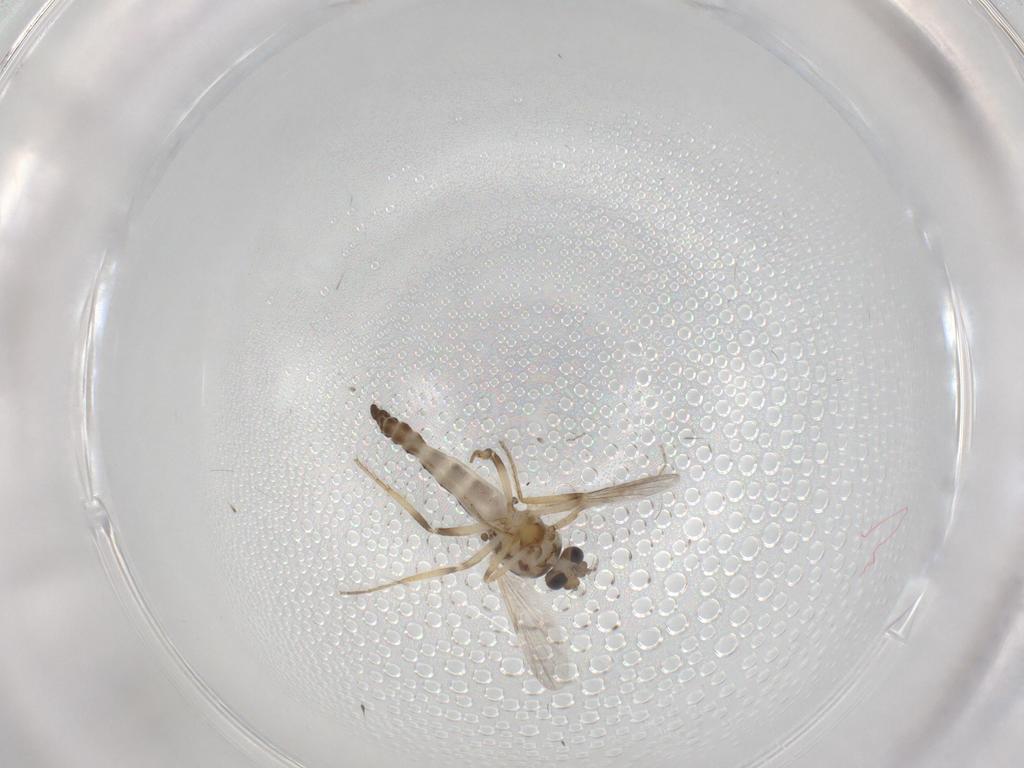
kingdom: Animalia
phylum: Arthropoda
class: Insecta
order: Diptera
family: Ceratopogonidae
